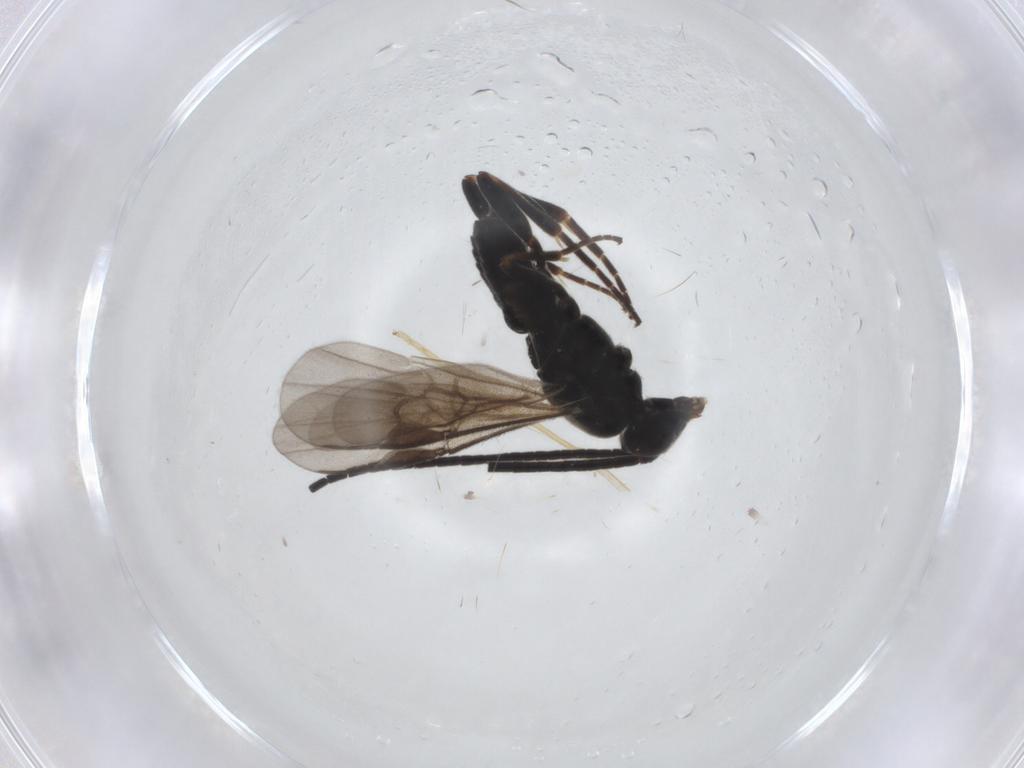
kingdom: Animalia
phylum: Arthropoda
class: Insecta
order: Hymenoptera
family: Braconidae
